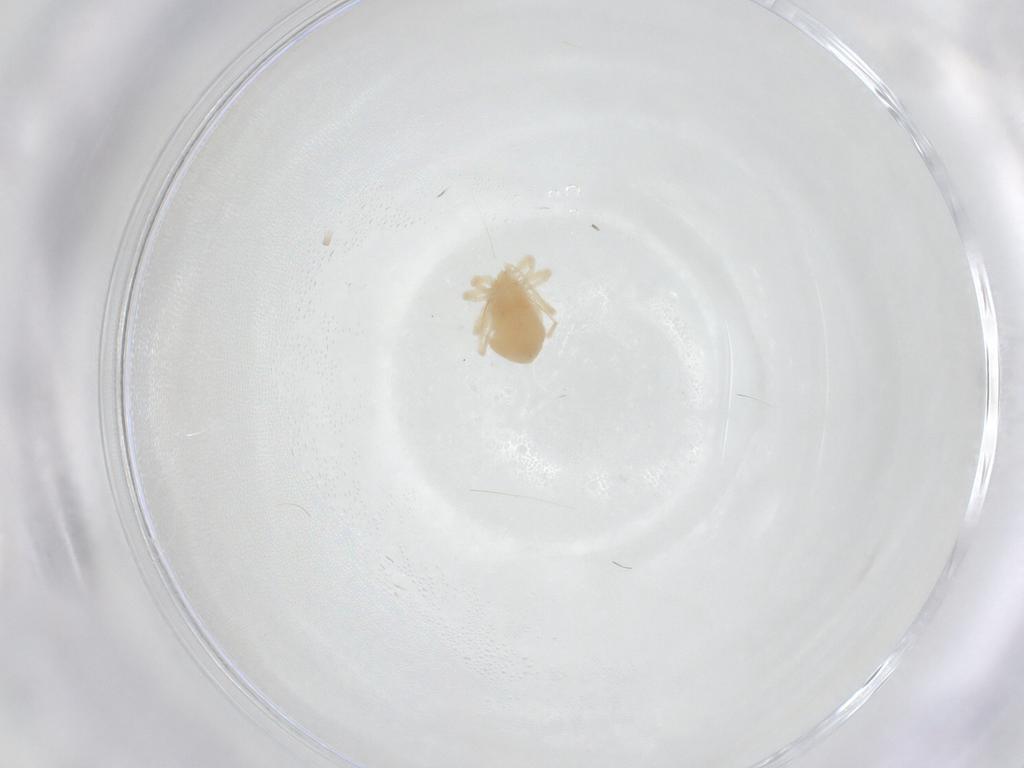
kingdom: Animalia
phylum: Arthropoda
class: Arachnida
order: Trombidiformes
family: Anystidae
